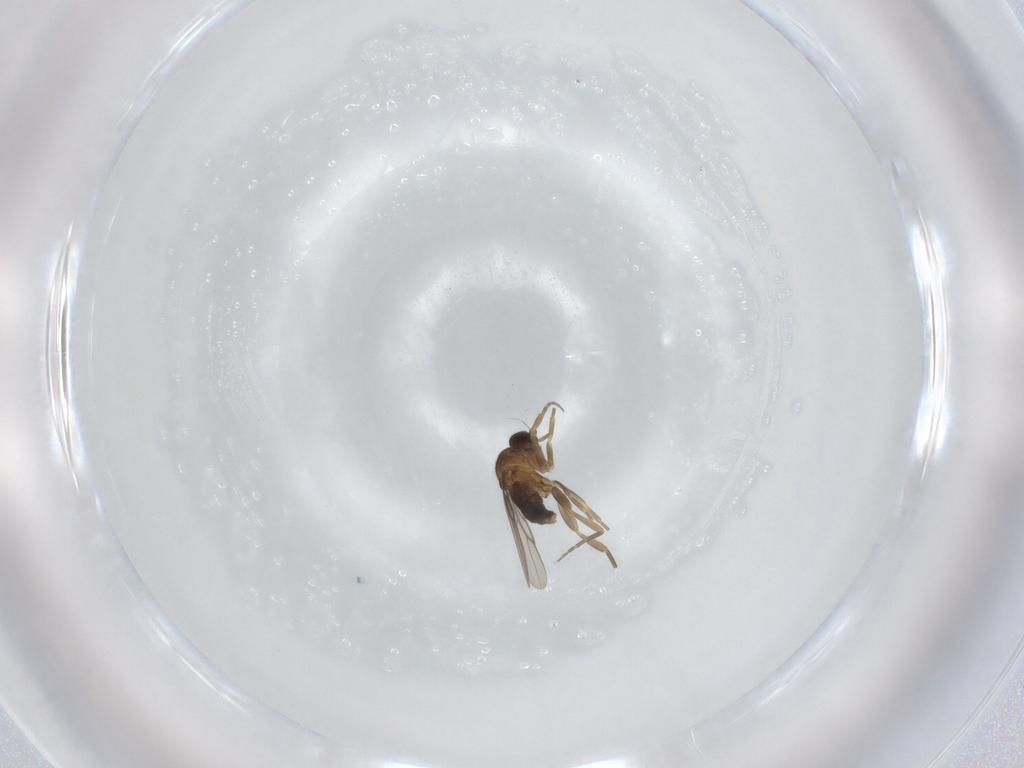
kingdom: Animalia
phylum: Arthropoda
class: Insecta
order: Diptera
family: Phoridae
